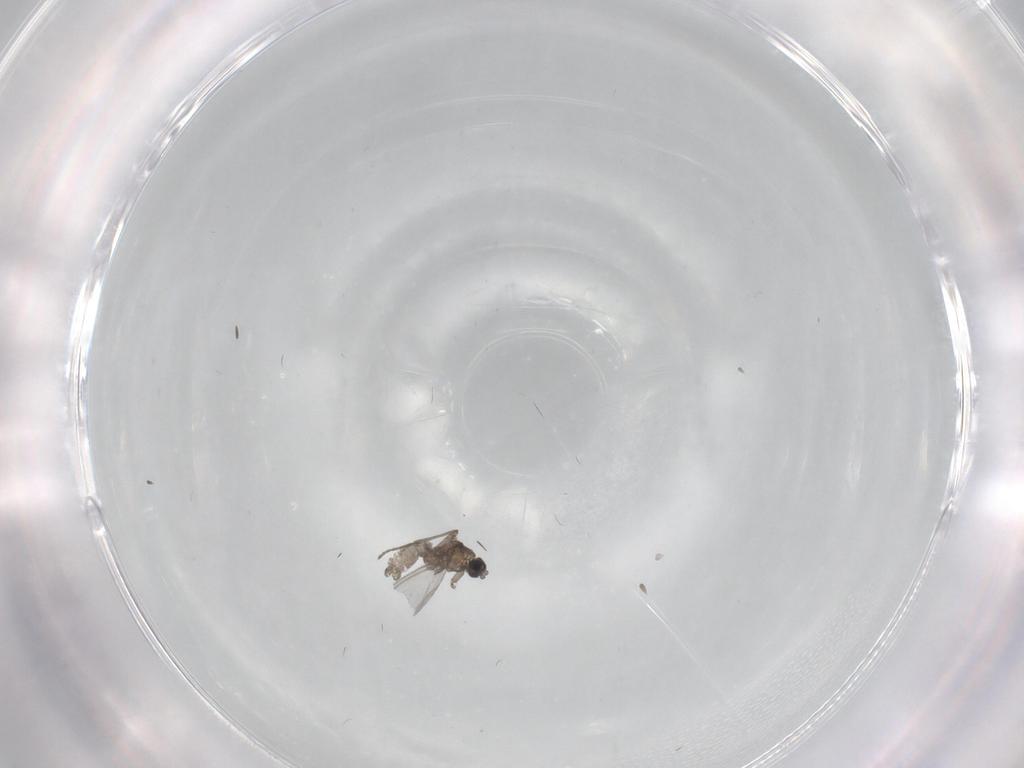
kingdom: Animalia
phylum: Arthropoda
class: Insecta
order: Diptera
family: Sciaridae
